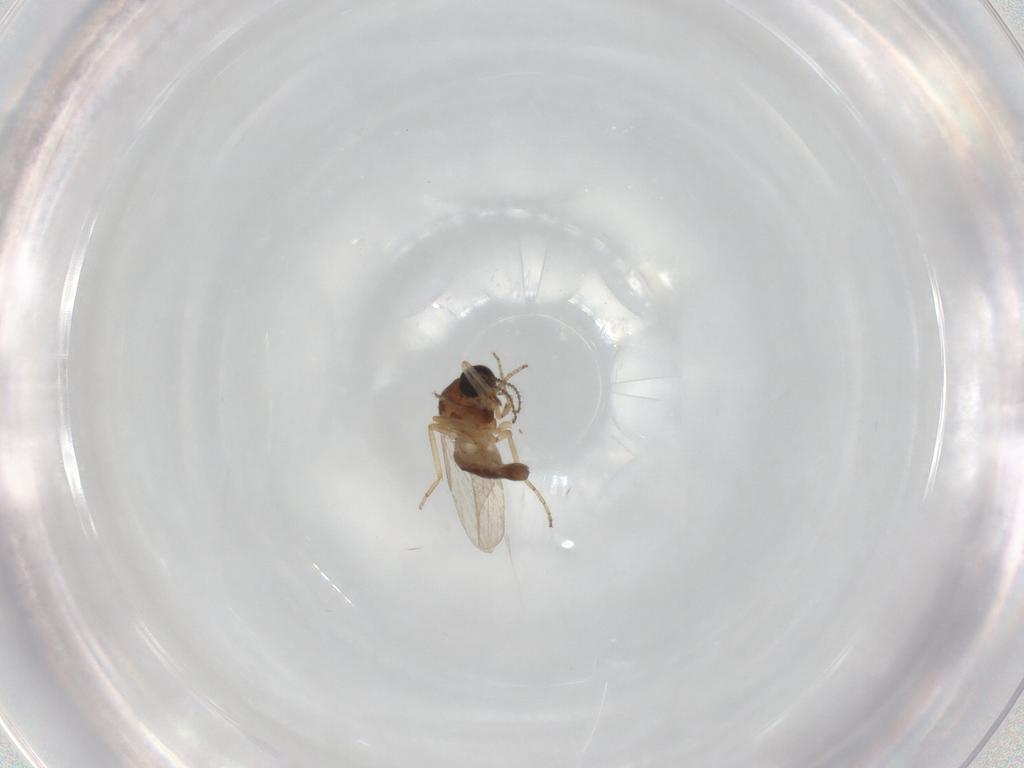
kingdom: Animalia
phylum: Arthropoda
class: Insecta
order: Diptera
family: Ceratopogonidae
